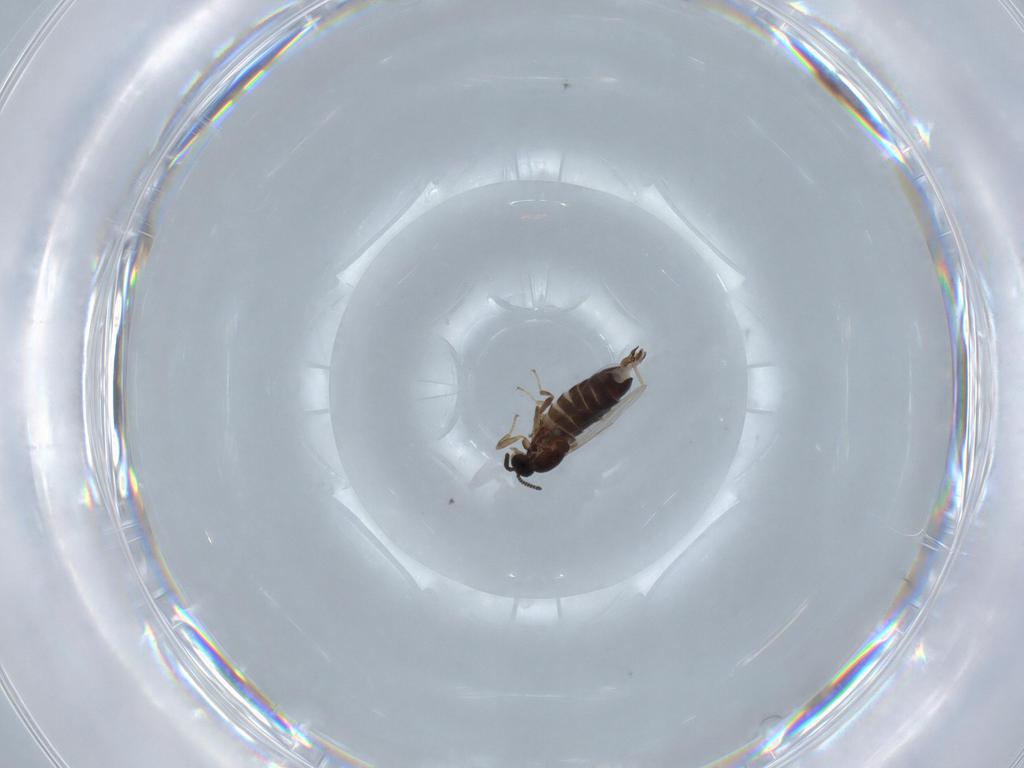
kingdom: Animalia
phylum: Arthropoda
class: Insecta
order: Diptera
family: Scatopsidae
